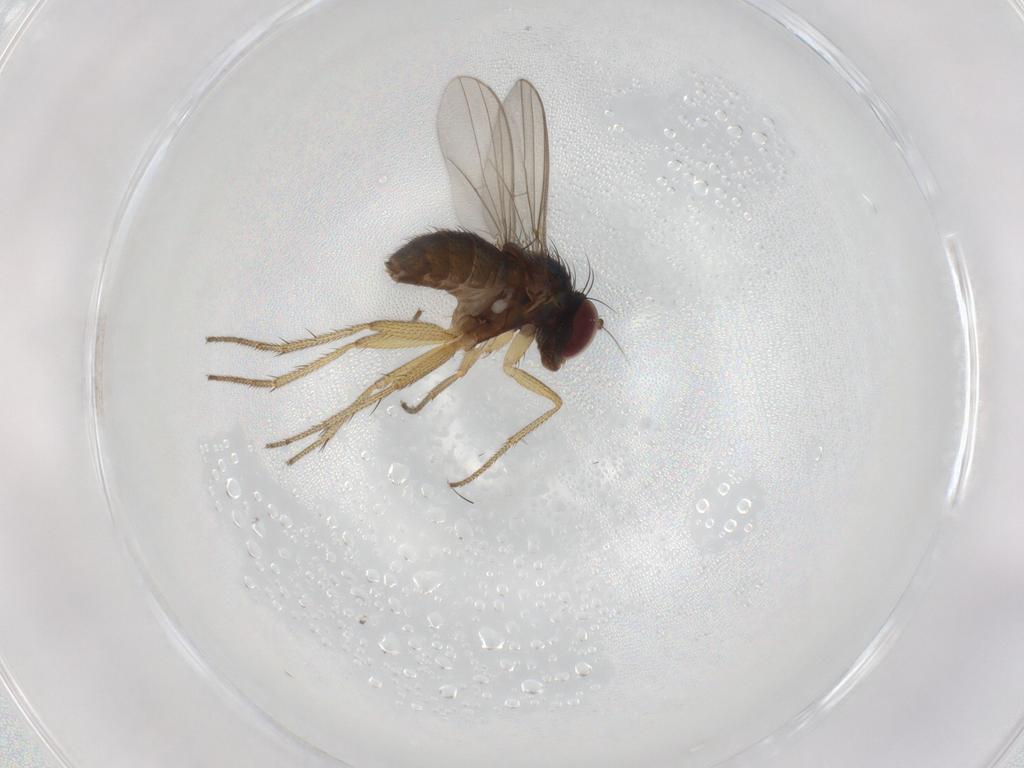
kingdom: Animalia
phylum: Arthropoda
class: Insecta
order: Diptera
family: Dolichopodidae
